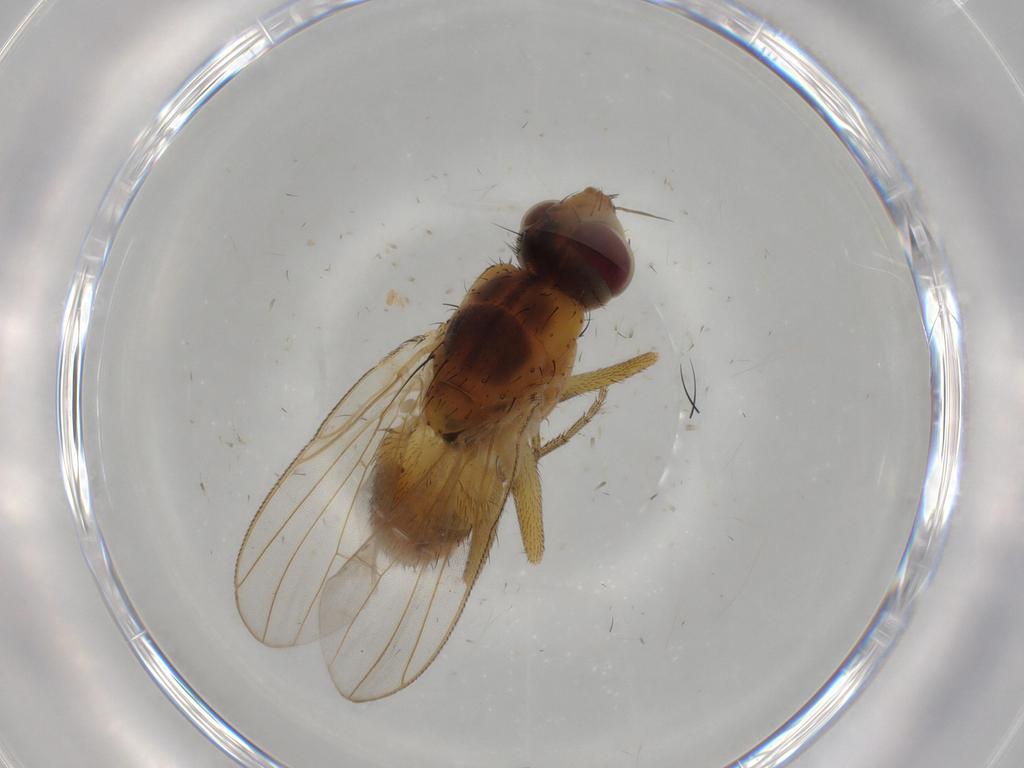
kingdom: Animalia
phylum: Arthropoda
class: Insecta
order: Diptera
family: Muscidae
